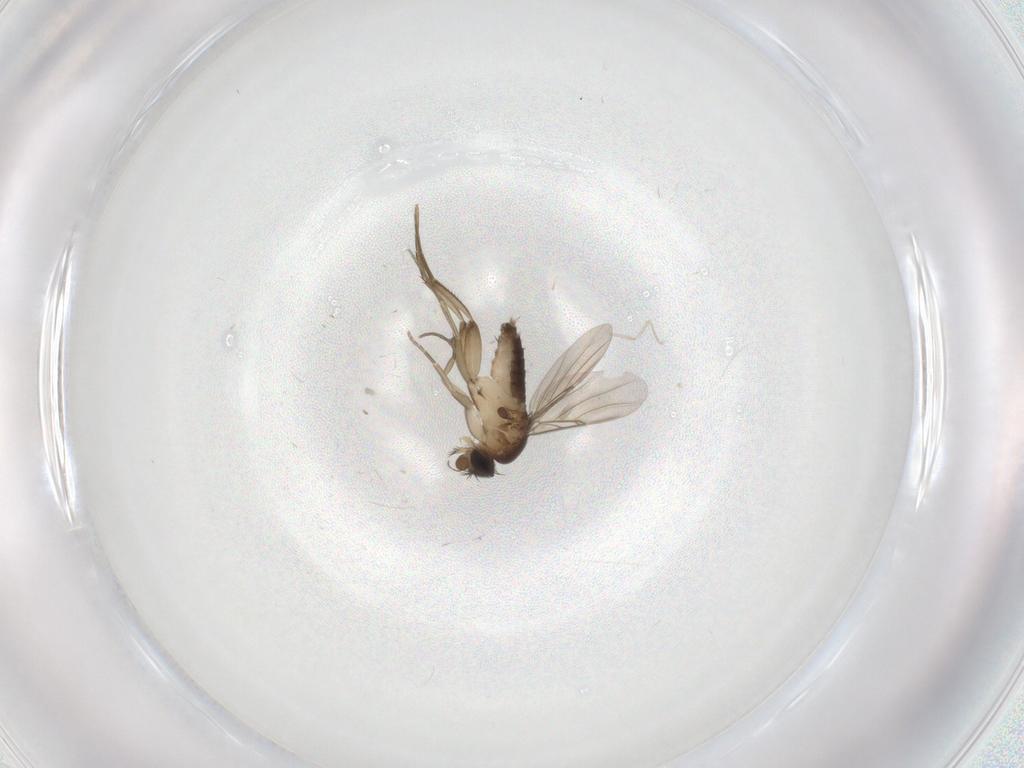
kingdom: Animalia
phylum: Arthropoda
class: Insecta
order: Diptera
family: Phoridae
